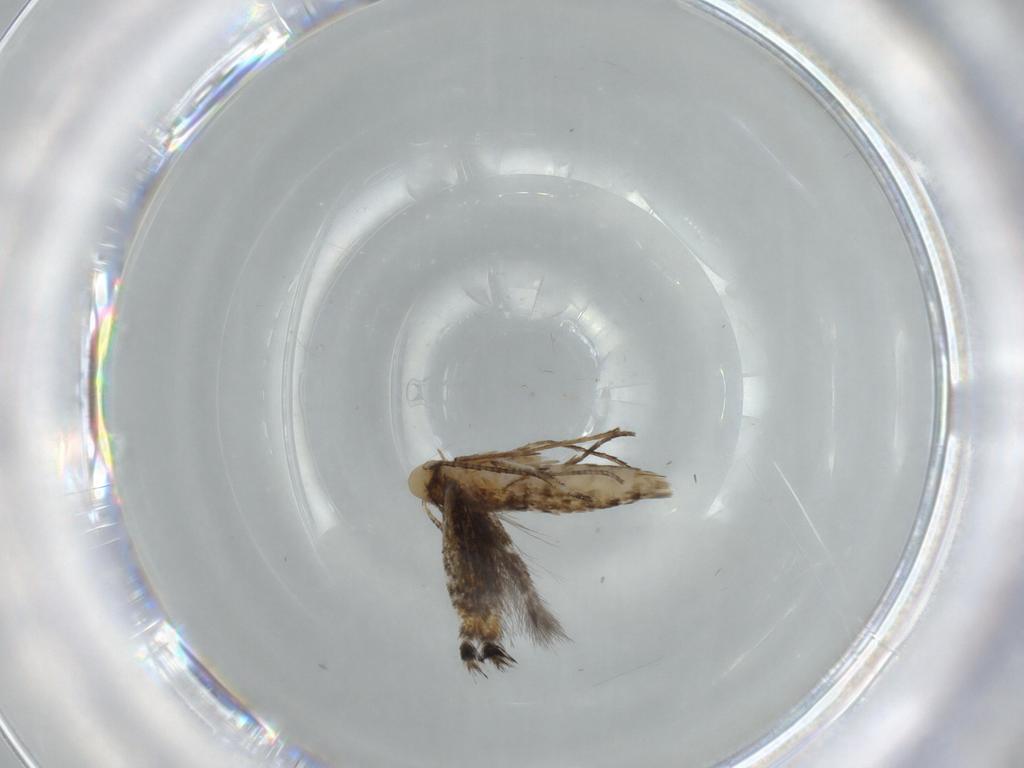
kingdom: Animalia
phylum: Arthropoda
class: Insecta
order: Lepidoptera
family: Gracillariidae
